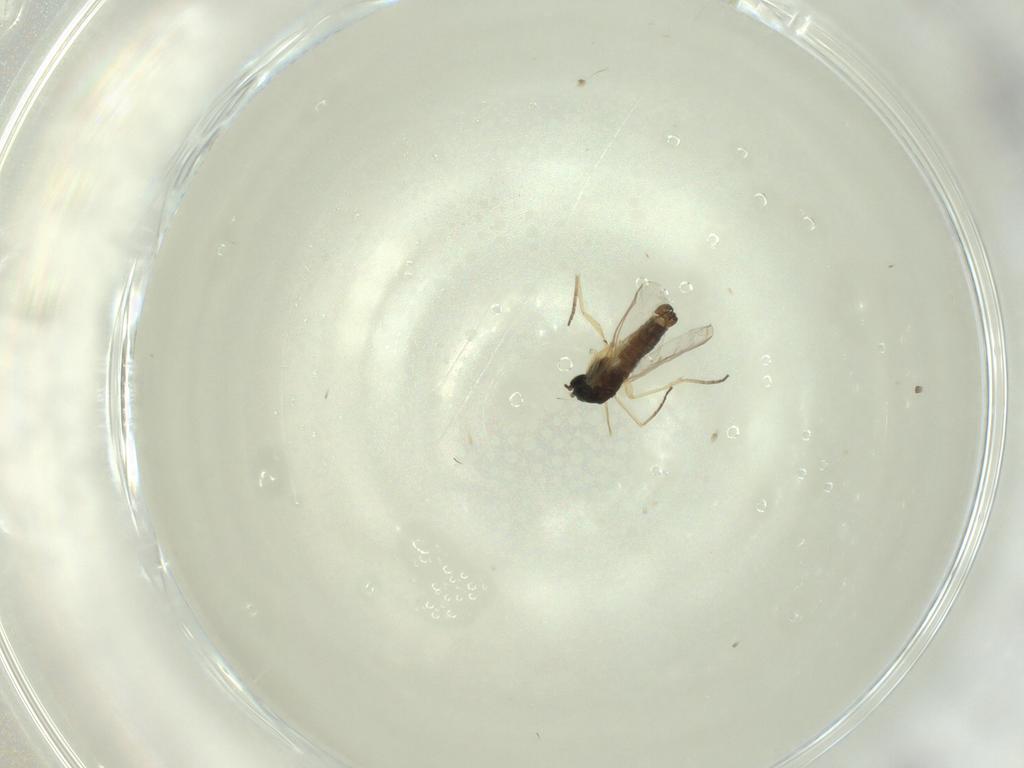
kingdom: Animalia
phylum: Arthropoda
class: Insecta
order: Diptera
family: Sciaridae
